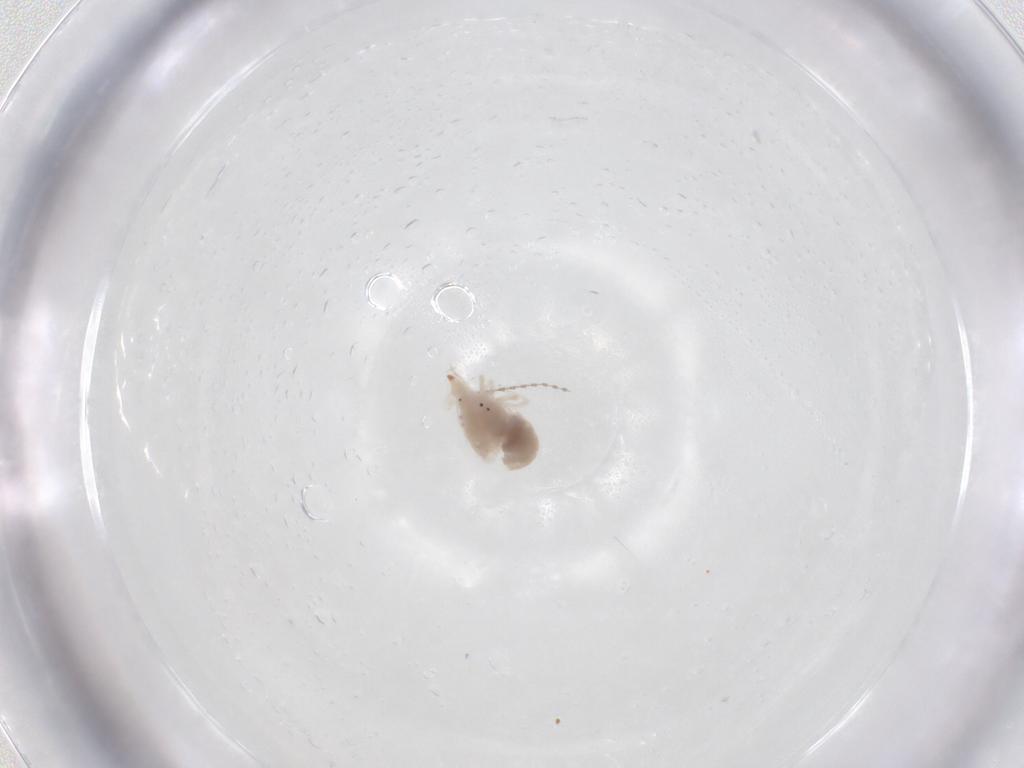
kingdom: Animalia
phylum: Arthropoda
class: Arachnida
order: Trombidiformes
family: Bdellidae
